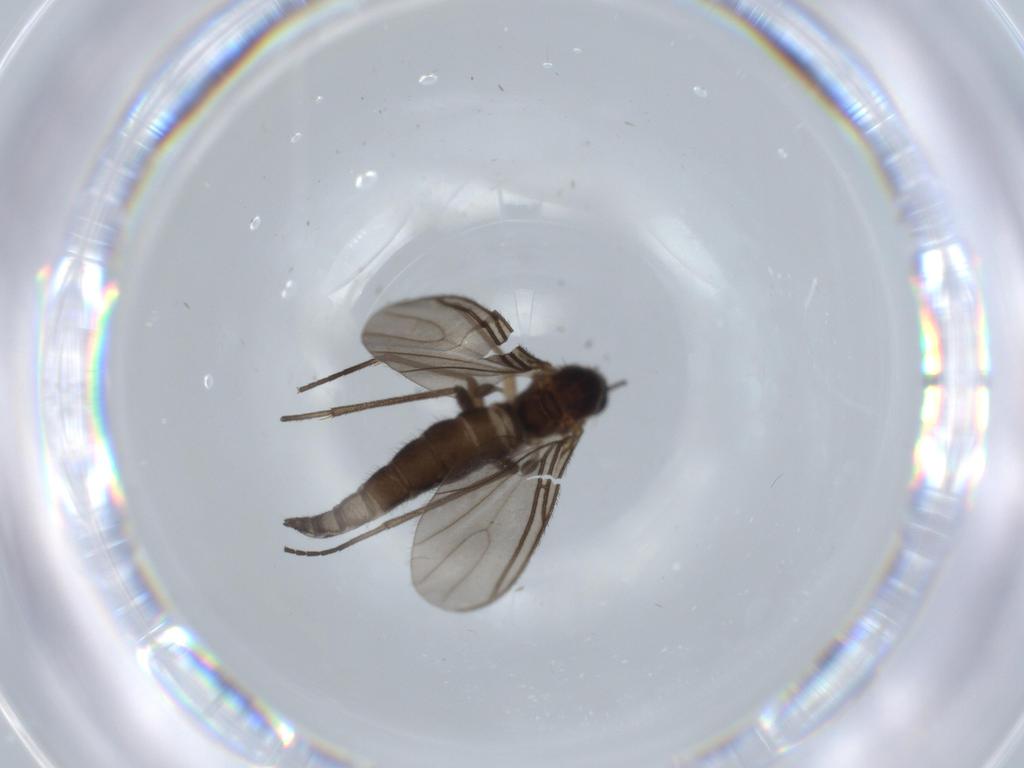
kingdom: Animalia
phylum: Arthropoda
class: Insecta
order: Diptera
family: Sciaridae
